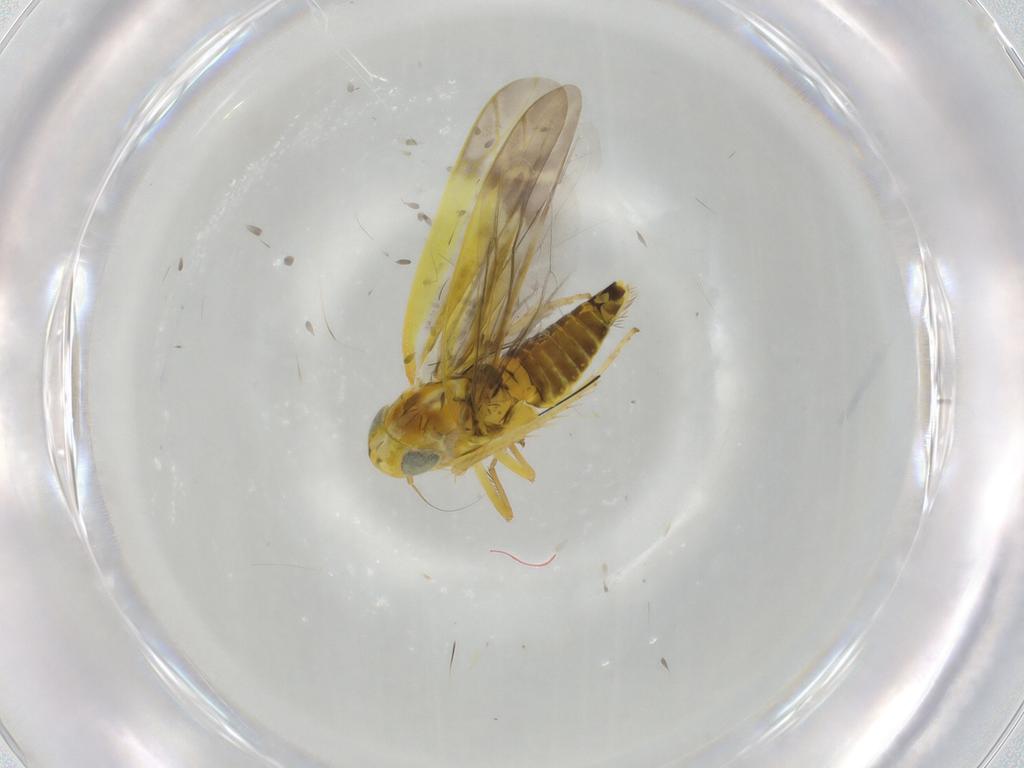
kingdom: Animalia
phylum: Arthropoda
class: Insecta
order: Hemiptera
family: Cicadellidae
